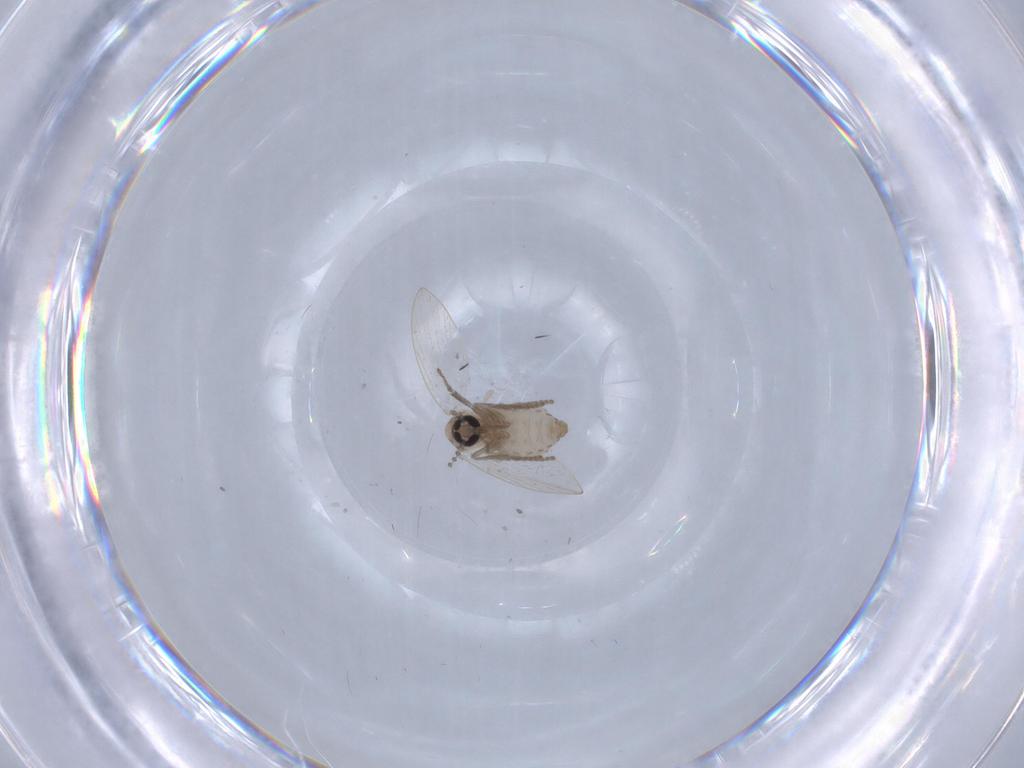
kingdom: Animalia
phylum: Arthropoda
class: Insecta
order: Diptera
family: Psychodidae
